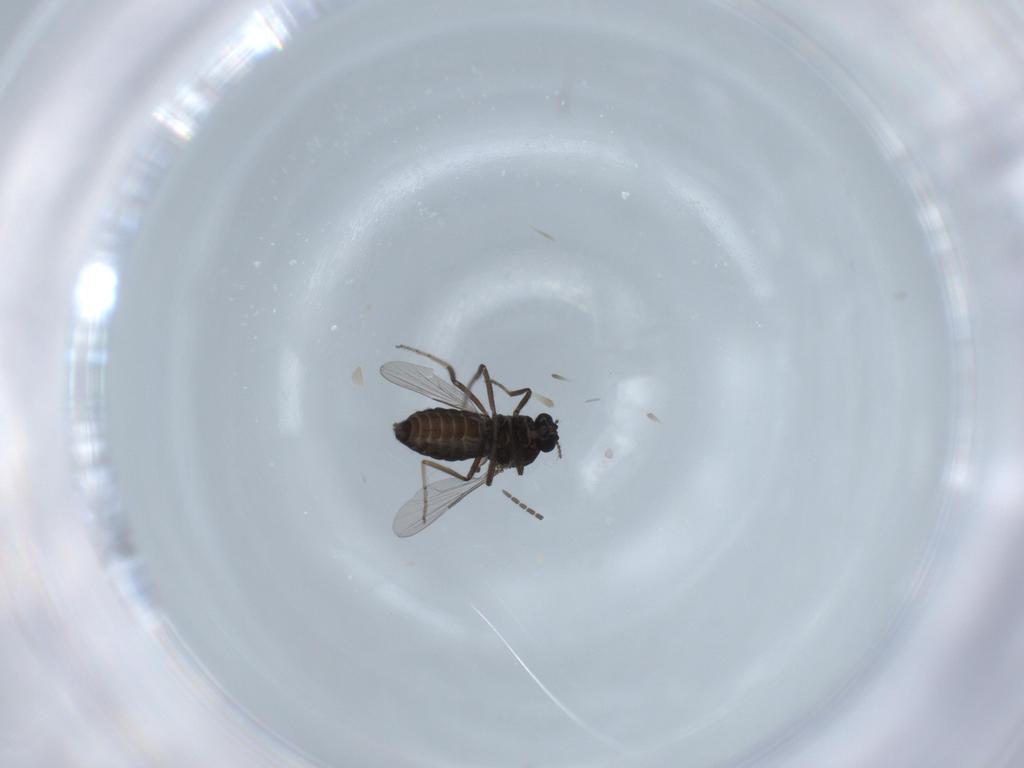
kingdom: Animalia
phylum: Arthropoda
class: Insecta
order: Diptera
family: Ceratopogonidae
